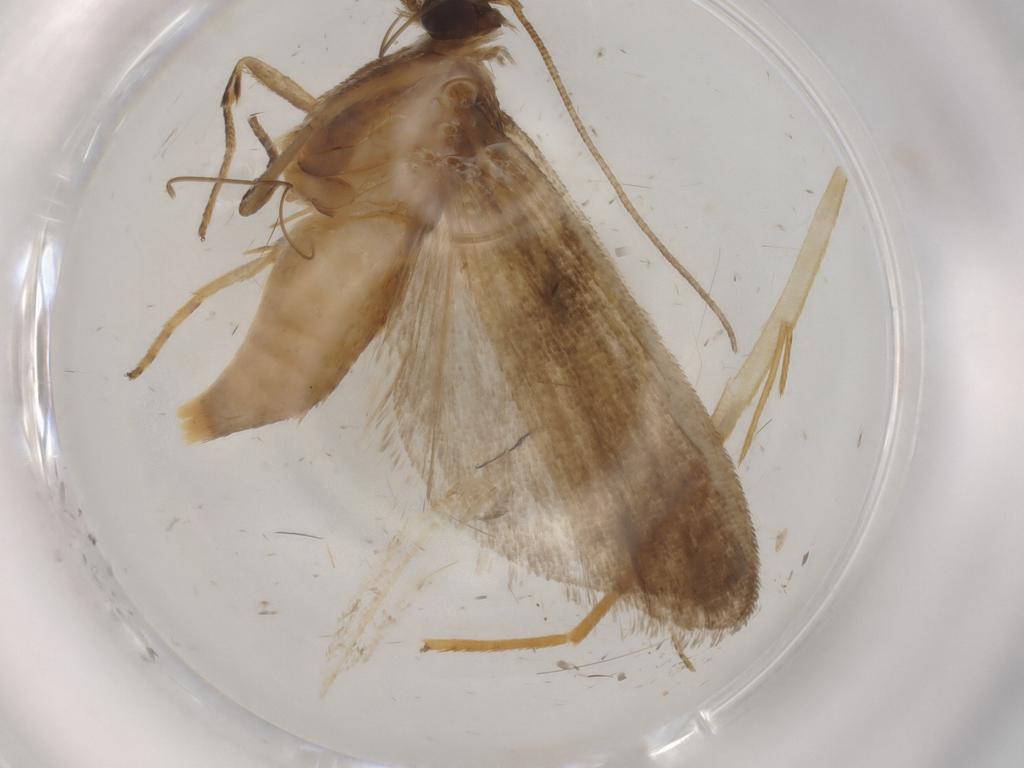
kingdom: Animalia
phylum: Arthropoda
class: Insecta
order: Lepidoptera
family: Noctuidae
